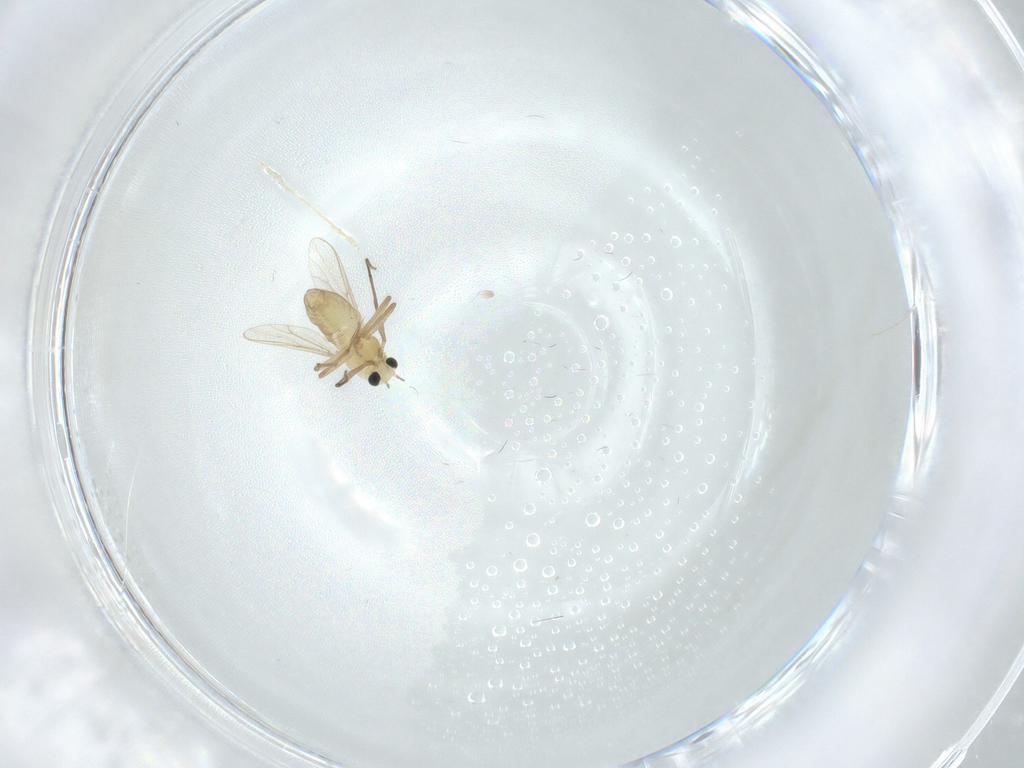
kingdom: Animalia
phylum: Arthropoda
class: Insecta
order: Diptera
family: Chironomidae
